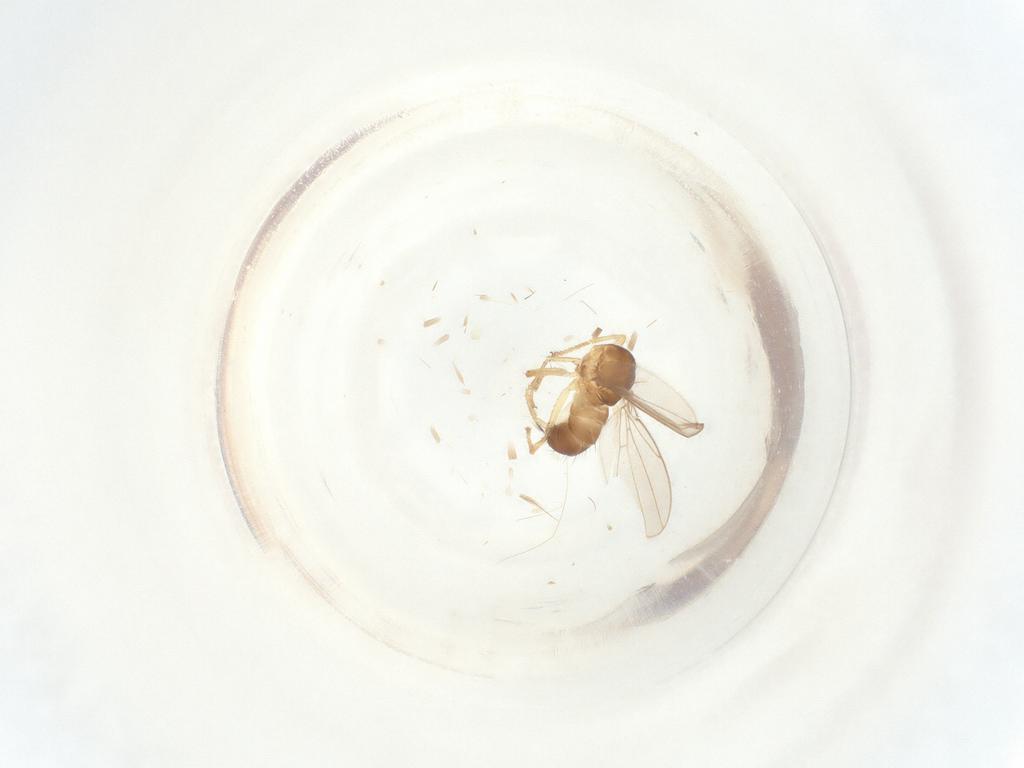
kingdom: Animalia
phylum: Arthropoda
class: Insecta
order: Diptera
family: Ephydridae
